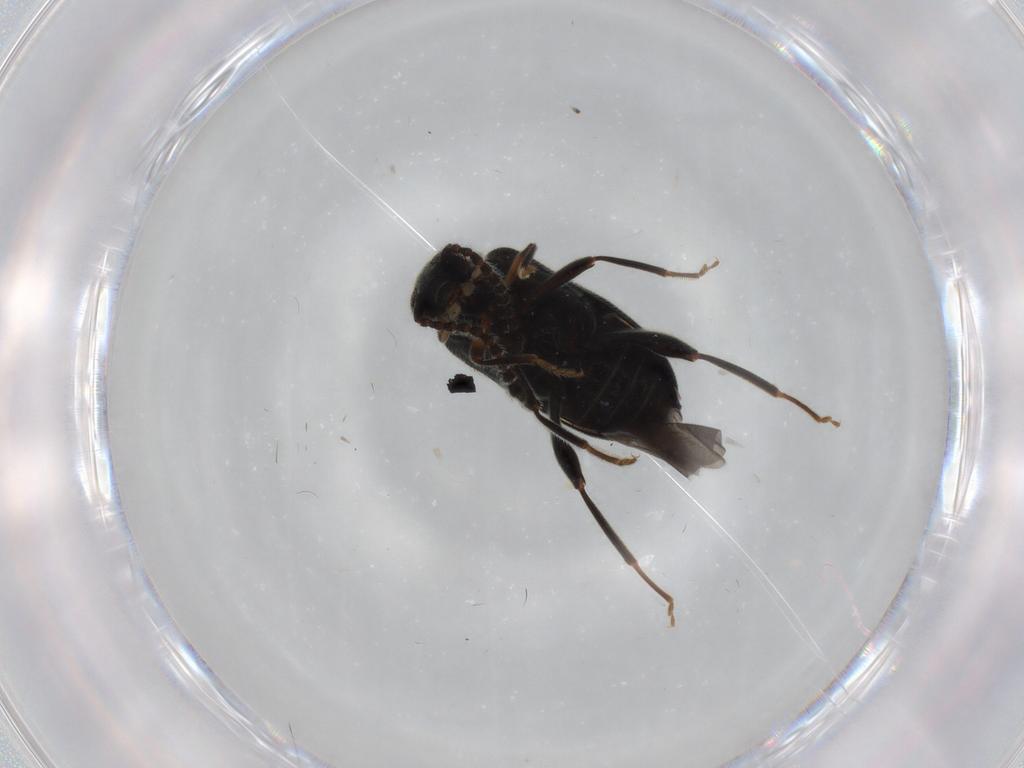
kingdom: Animalia
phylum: Arthropoda
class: Insecta
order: Coleoptera
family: Aderidae
